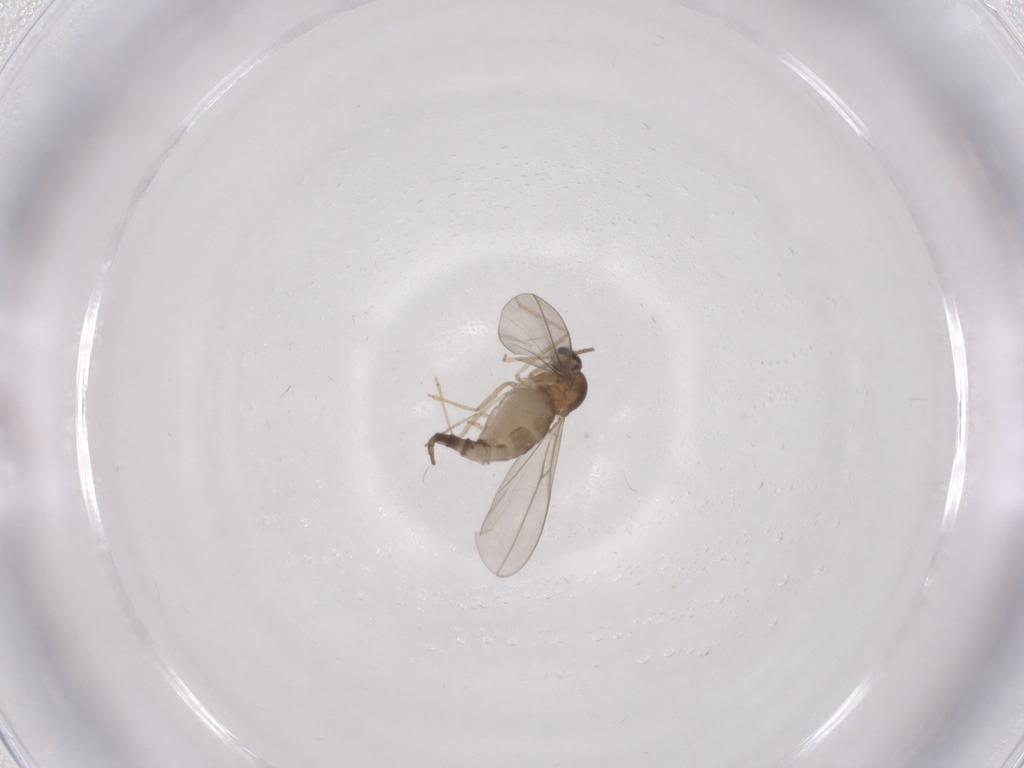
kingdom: Animalia
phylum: Arthropoda
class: Insecta
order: Diptera
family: Cecidomyiidae
